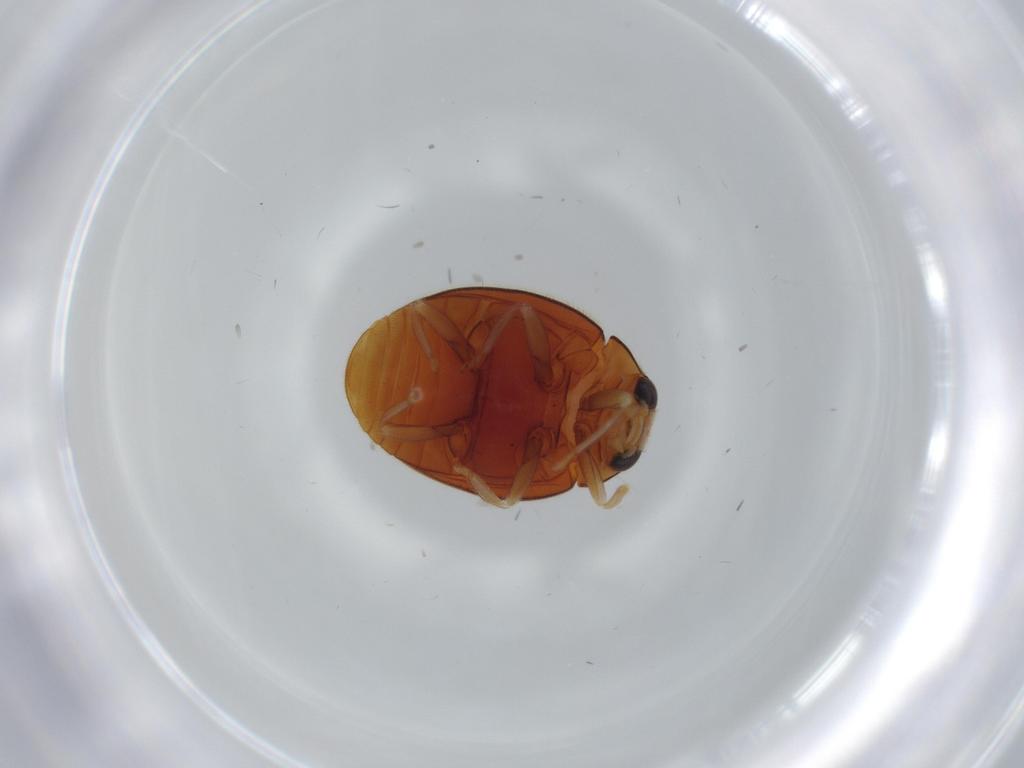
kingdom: Animalia
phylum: Arthropoda
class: Insecta
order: Coleoptera
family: Coccinellidae
